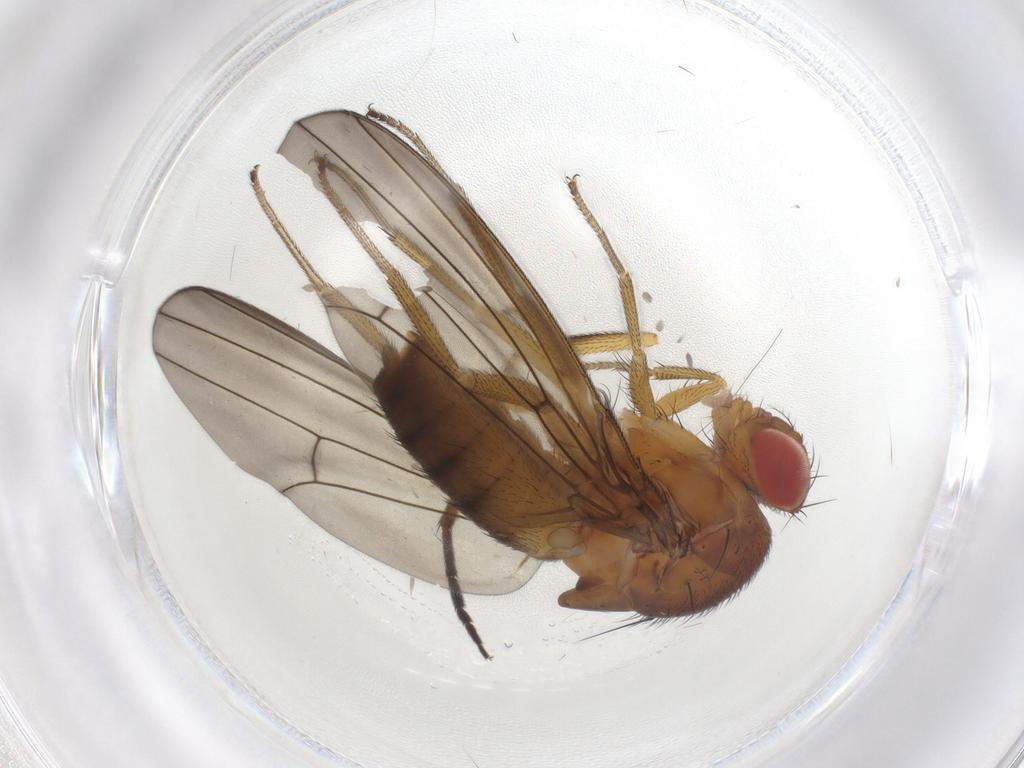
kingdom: Animalia
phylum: Arthropoda
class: Insecta
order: Diptera
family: Drosophilidae
